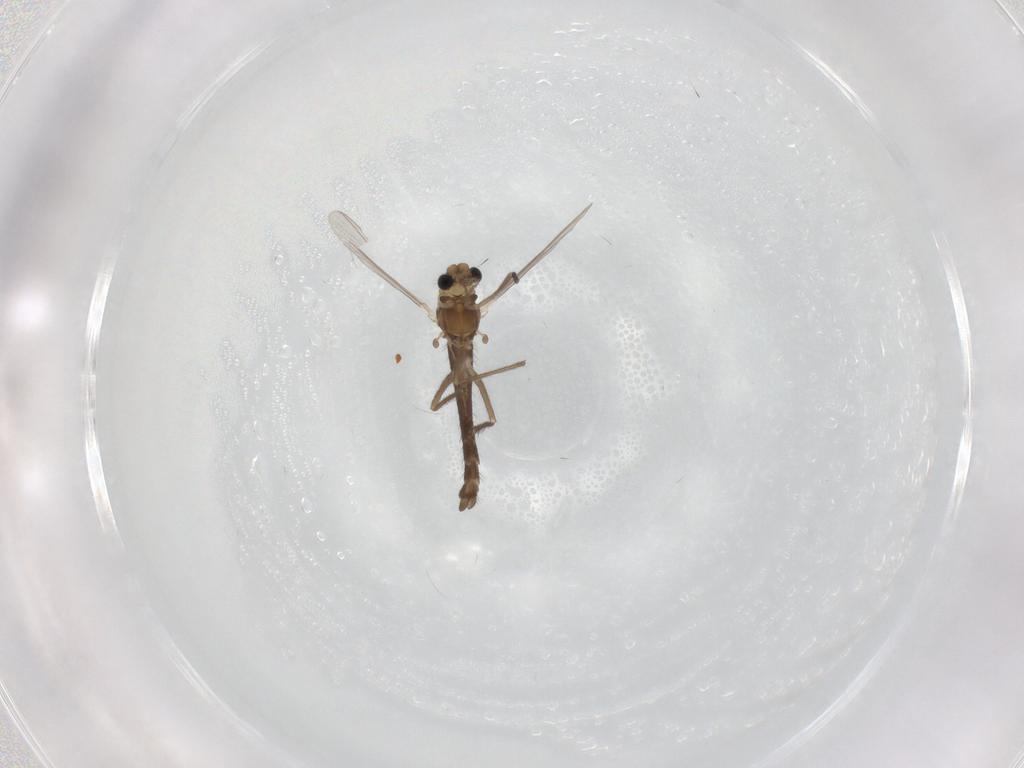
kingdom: Animalia
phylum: Arthropoda
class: Insecta
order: Diptera
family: Chironomidae
